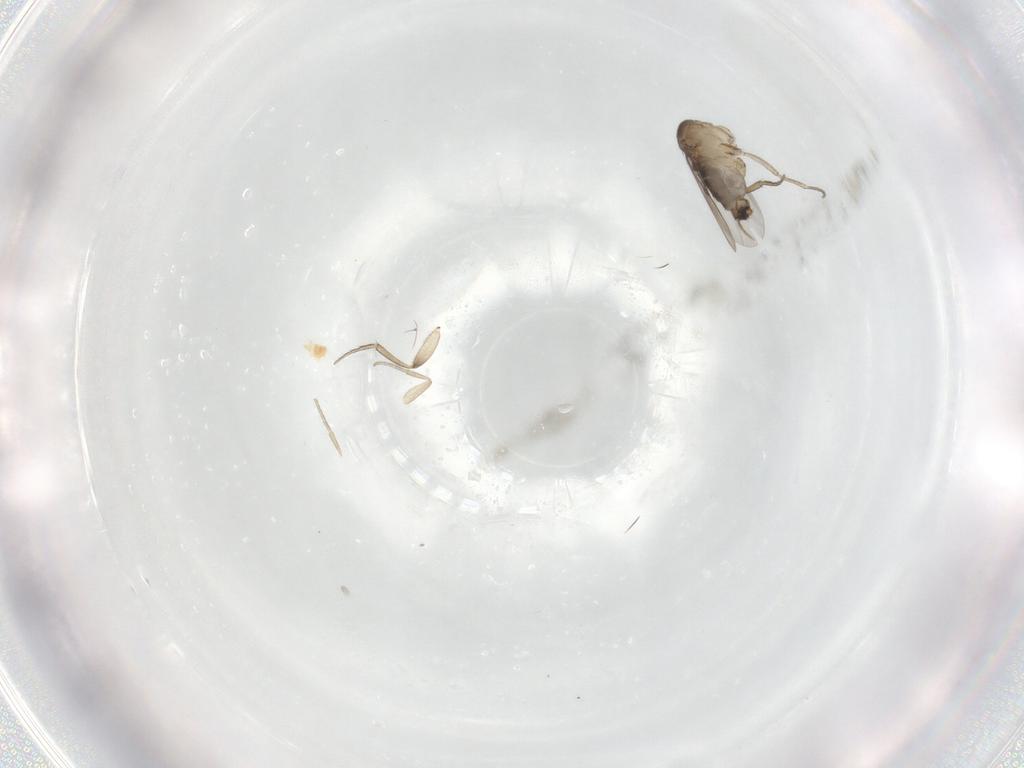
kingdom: Animalia
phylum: Arthropoda
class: Insecta
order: Diptera
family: Phoridae
